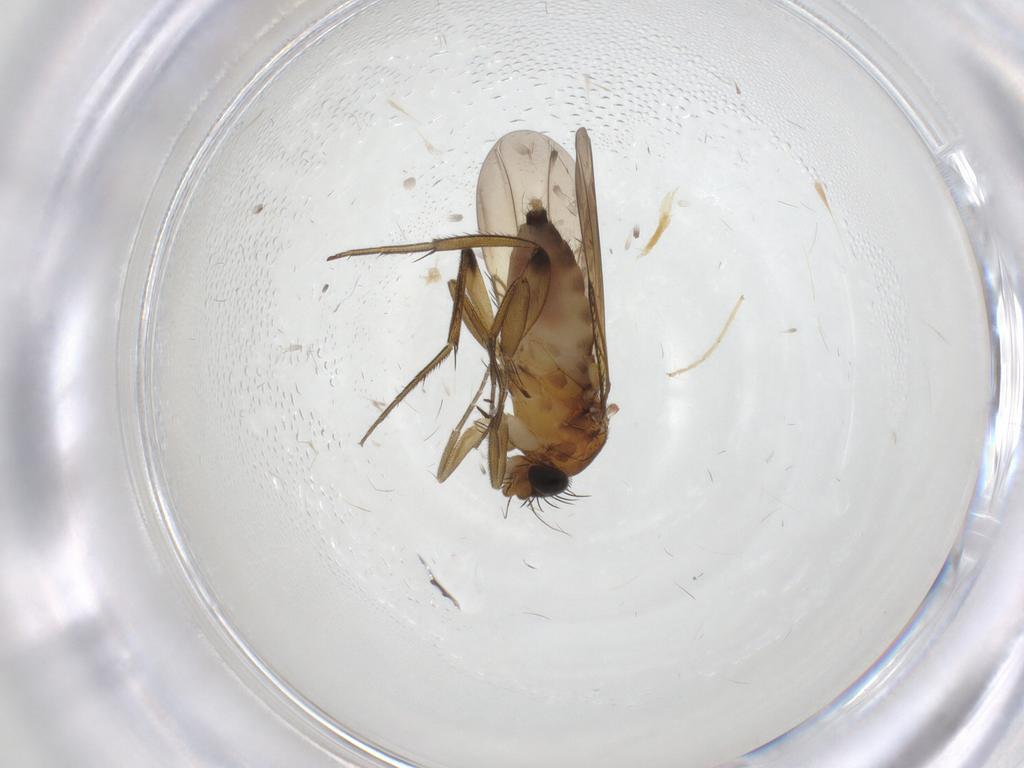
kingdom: Animalia
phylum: Arthropoda
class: Insecta
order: Diptera
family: Phoridae
